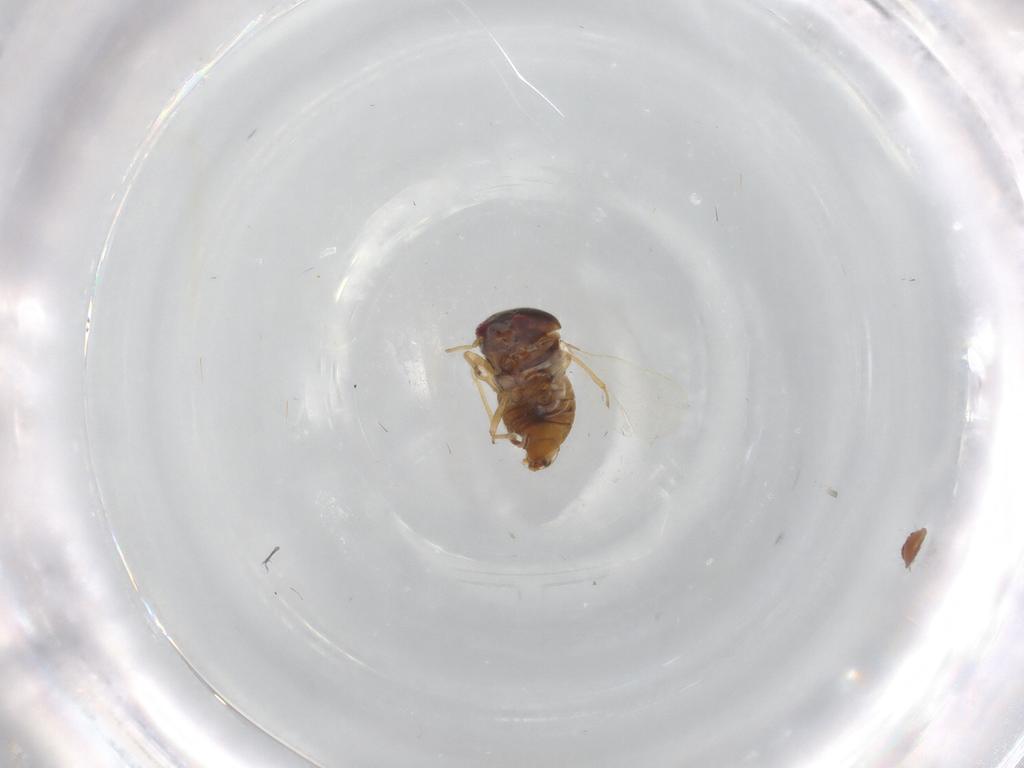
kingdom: Animalia
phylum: Arthropoda
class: Insecta
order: Hemiptera
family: Schizopteridae
